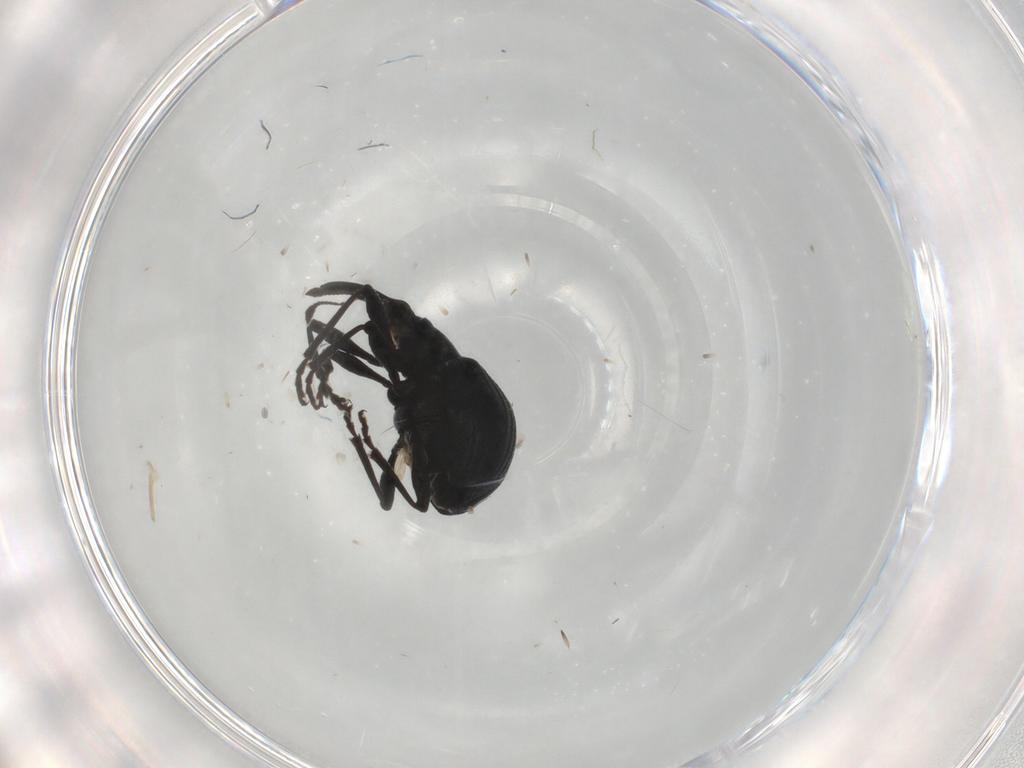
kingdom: Animalia
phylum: Arthropoda
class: Insecta
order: Coleoptera
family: Brentidae
